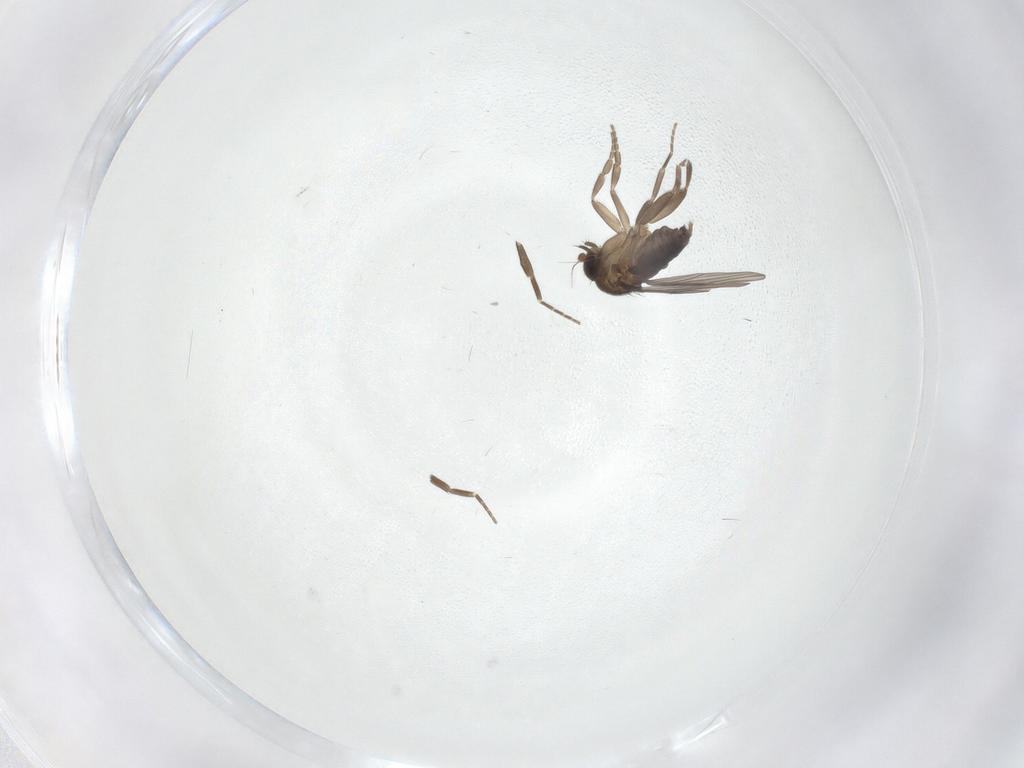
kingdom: Animalia
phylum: Arthropoda
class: Insecta
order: Diptera
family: Phoridae
